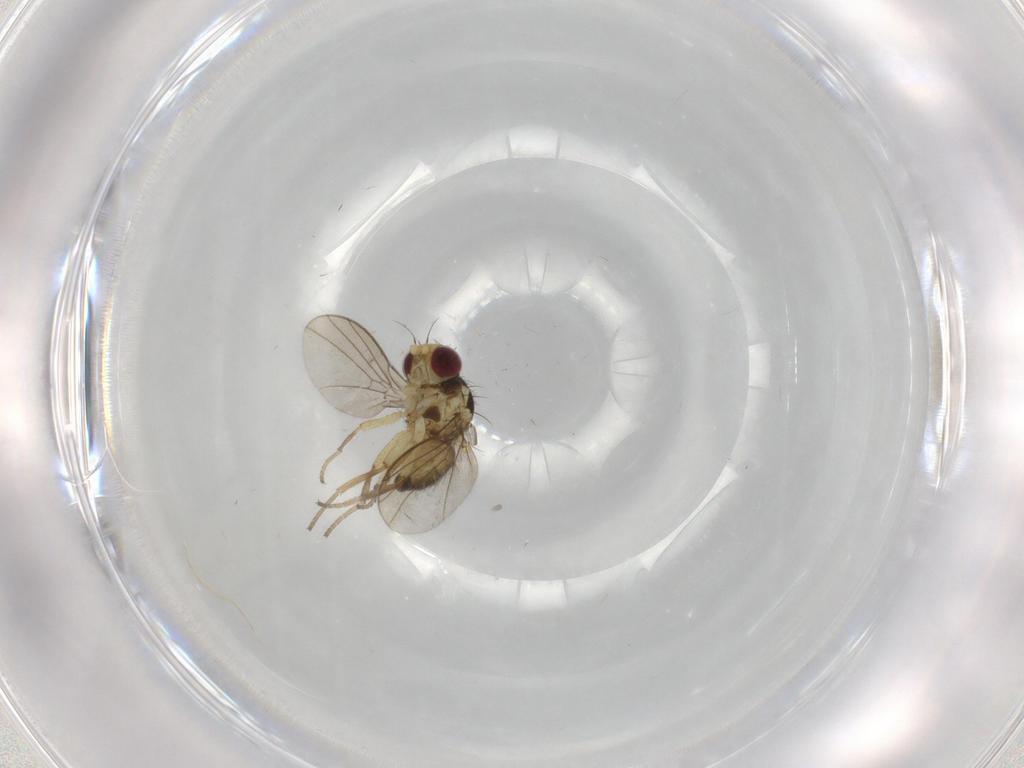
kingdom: Animalia
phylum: Arthropoda
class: Insecta
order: Diptera
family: Agromyzidae
